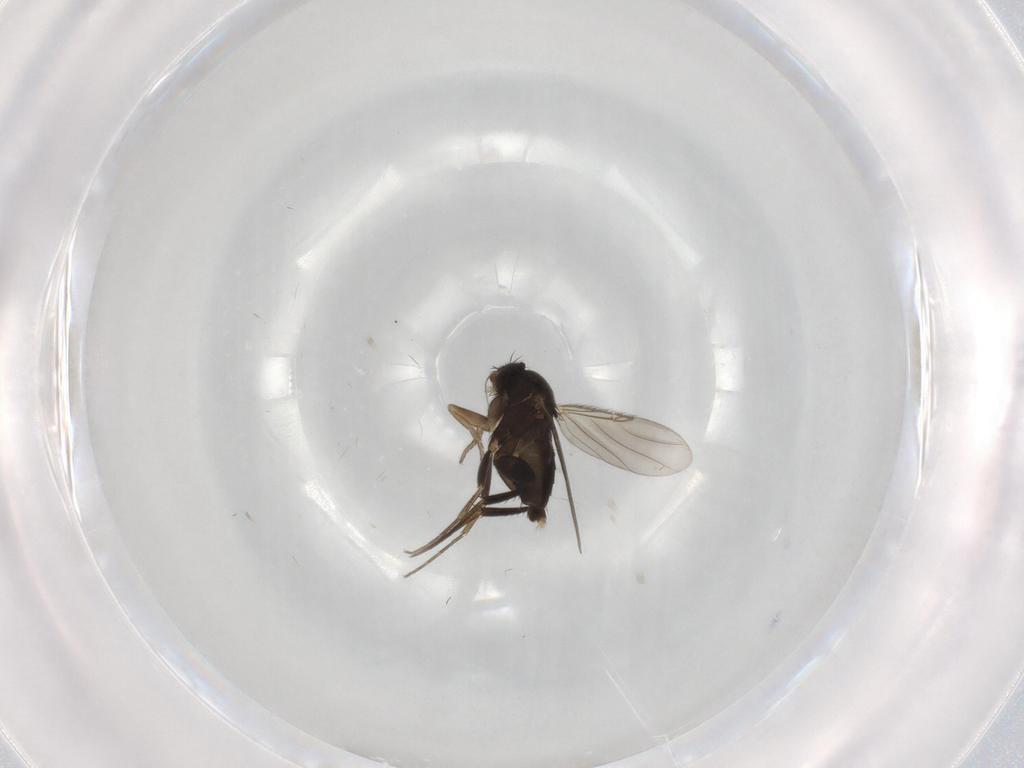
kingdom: Animalia
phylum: Arthropoda
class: Insecta
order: Diptera
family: Phoridae
